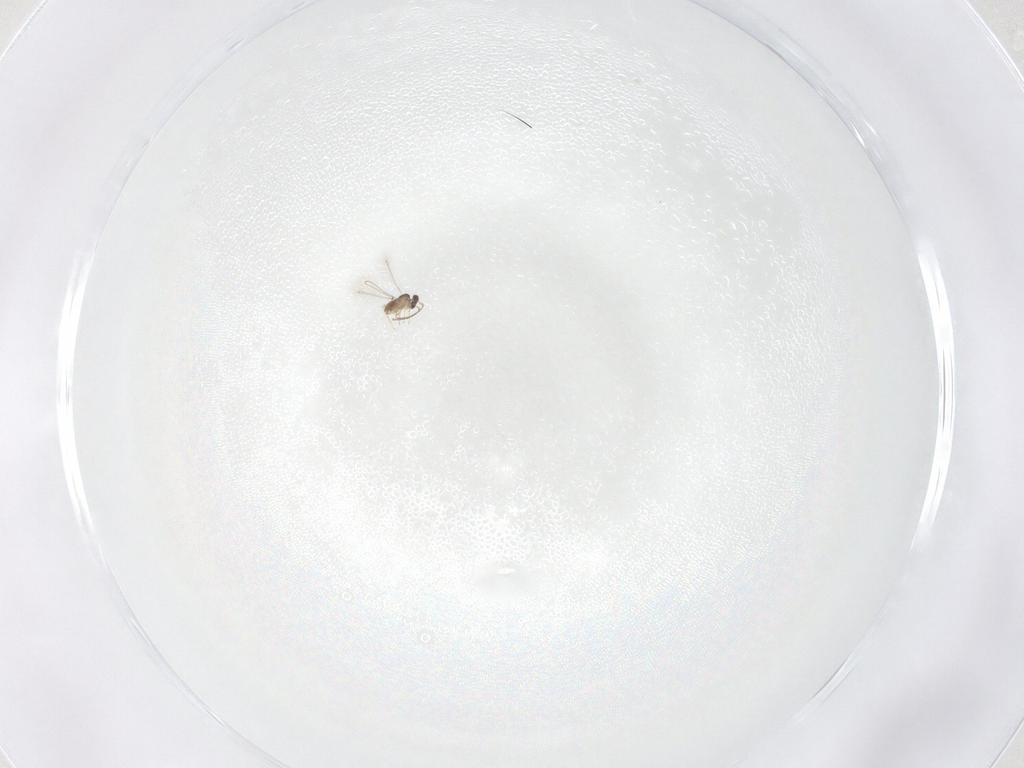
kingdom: Animalia
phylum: Arthropoda
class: Insecta
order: Hymenoptera
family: Mymaridae
